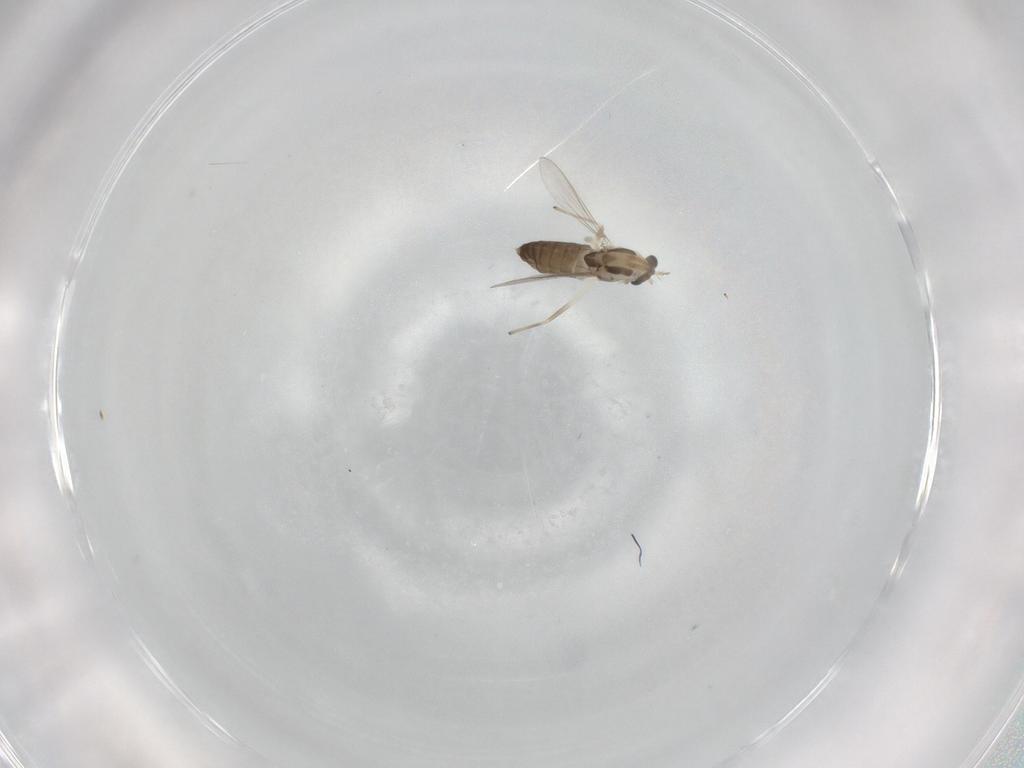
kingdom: Animalia
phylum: Arthropoda
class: Insecta
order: Diptera
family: Chironomidae
